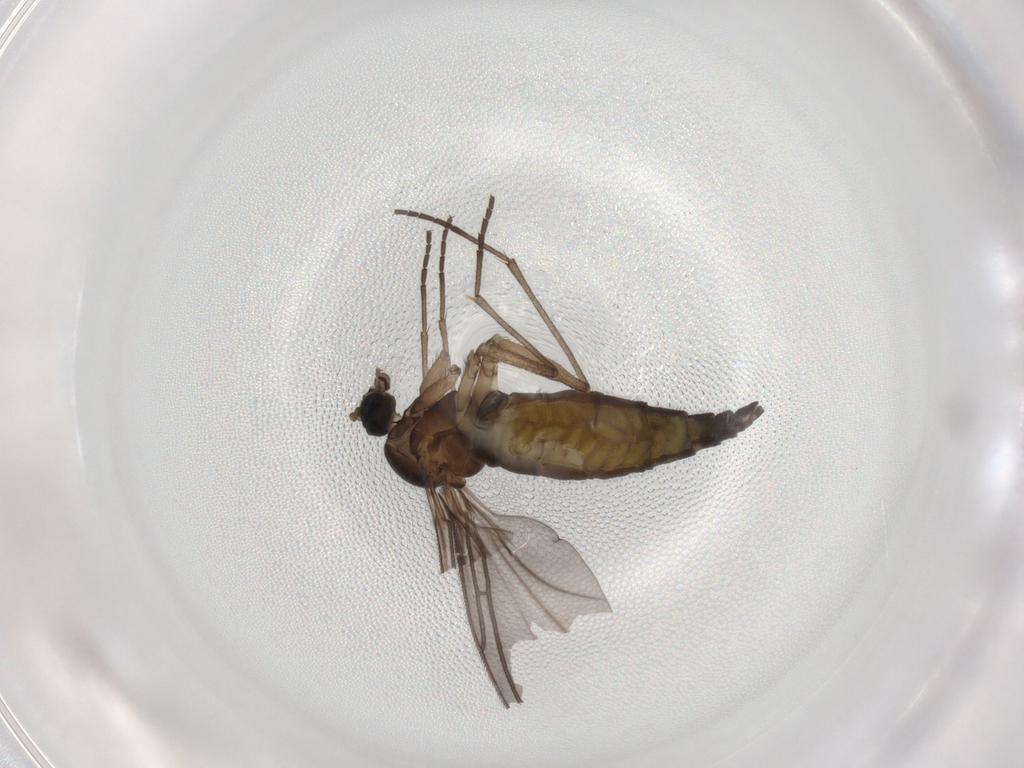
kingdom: Animalia
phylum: Arthropoda
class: Insecta
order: Diptera
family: Sciaridae
